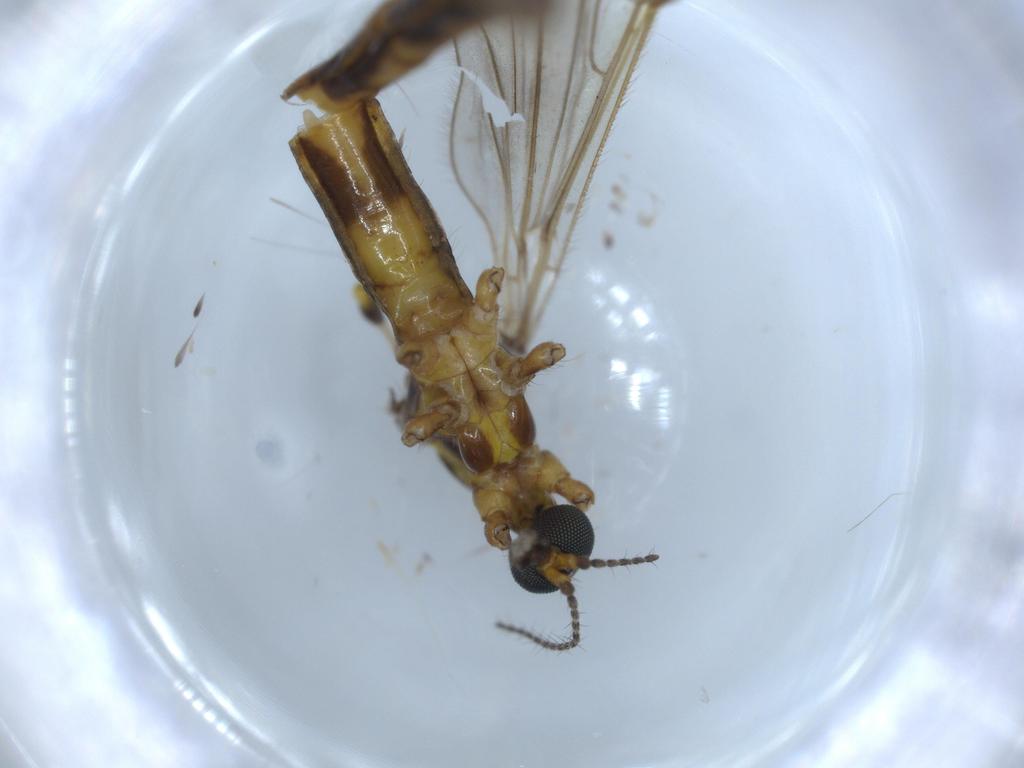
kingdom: Animalia
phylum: Arthropoda
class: Insecta
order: Diptera
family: Limoniidae
